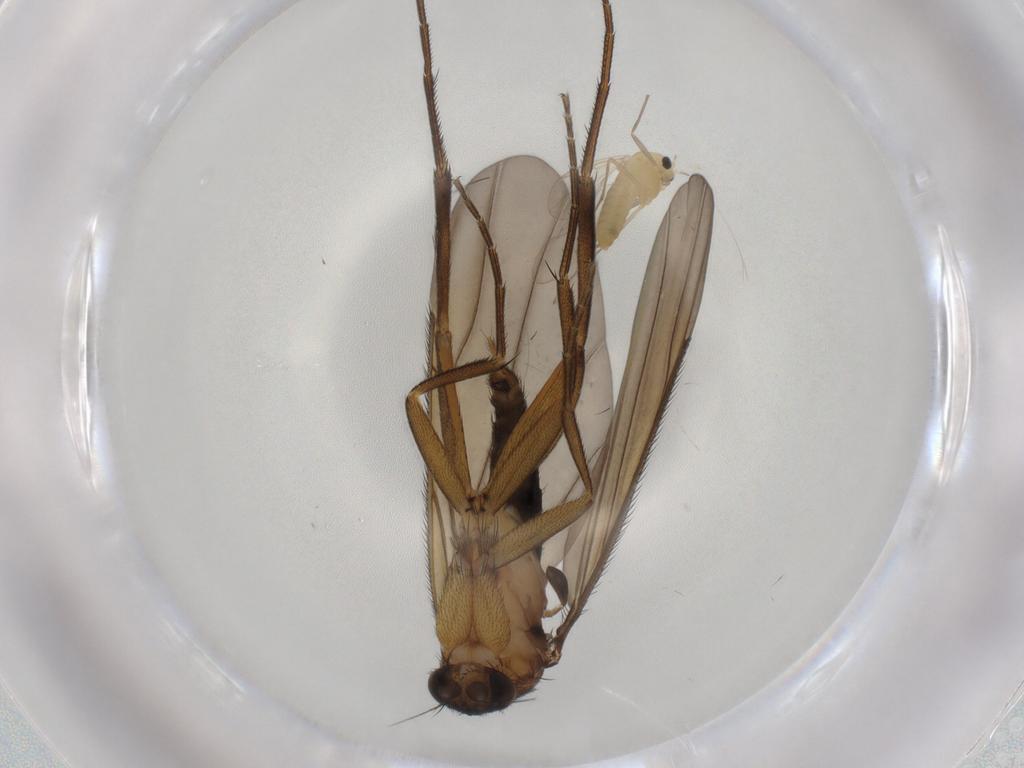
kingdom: Animalia
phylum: Arthropoda
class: Insecta
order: Diptera
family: Chironomidae
